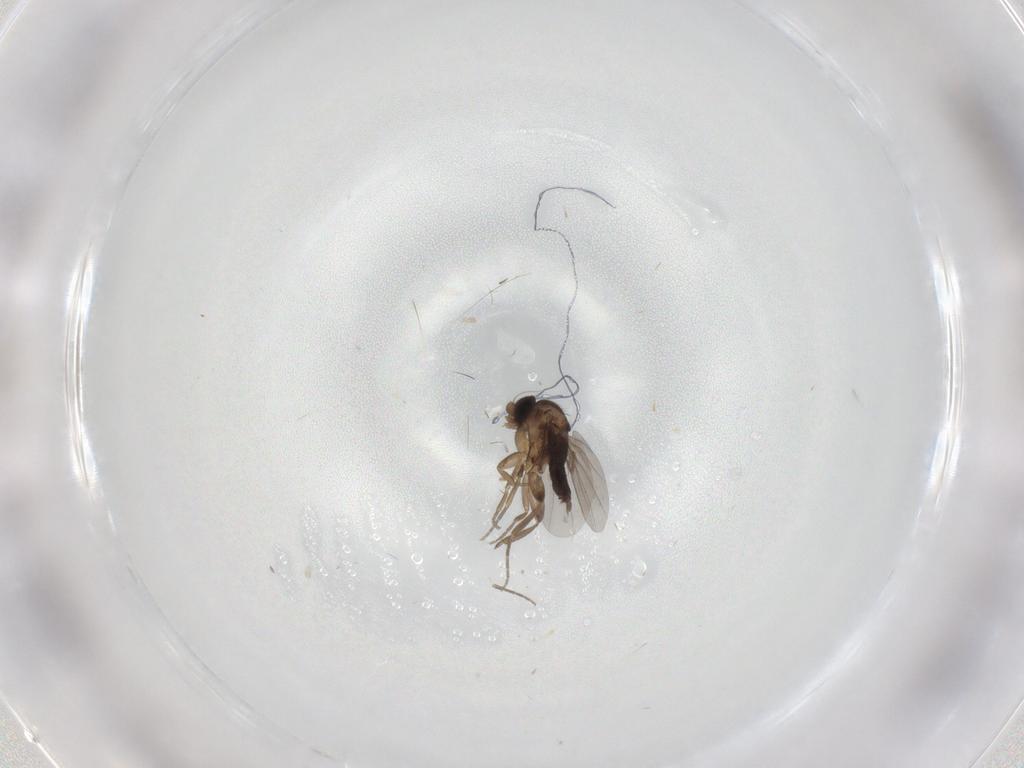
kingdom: Animalia
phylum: Arthropoda
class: Insecta
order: Diptera
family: Phoridae
